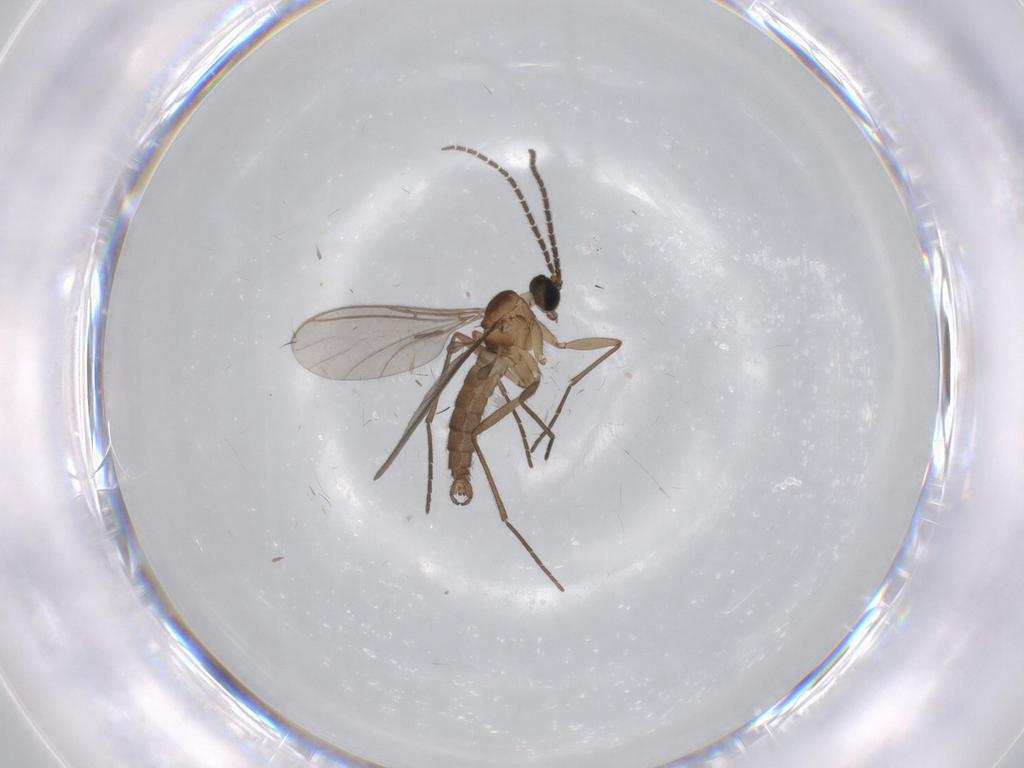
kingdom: Animalia
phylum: Arthropoda
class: Insecta
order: Diptera
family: Sciaridae
